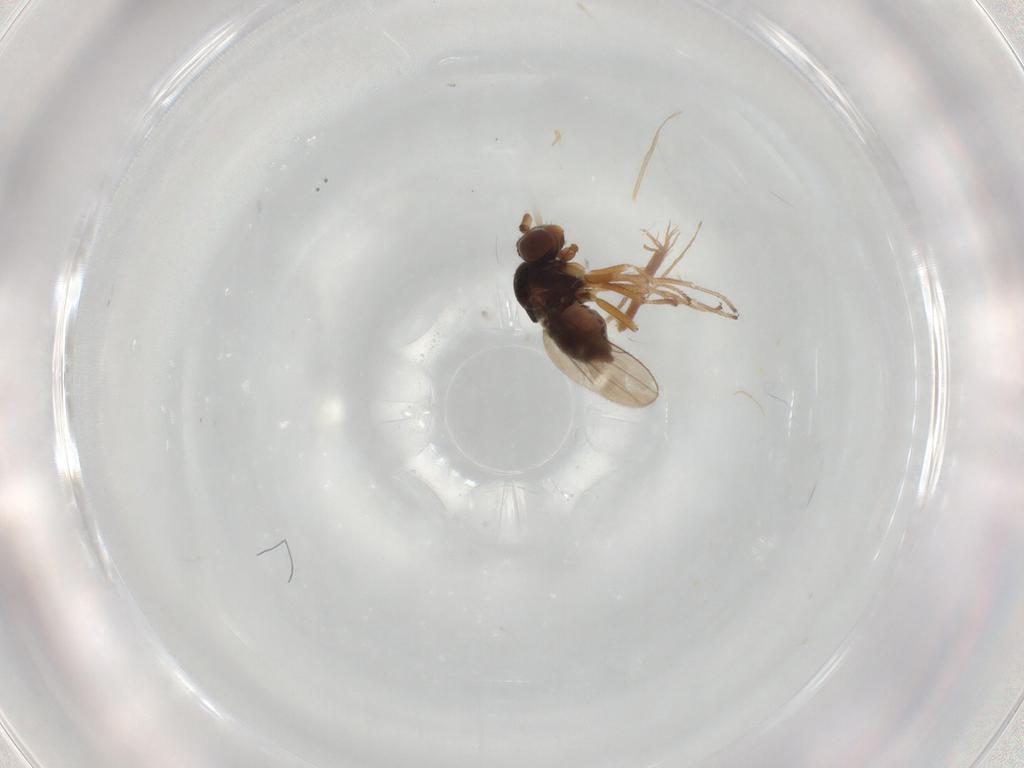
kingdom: Animalia
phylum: Arthropoda
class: Insecta
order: Diptera
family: Ephydridae
